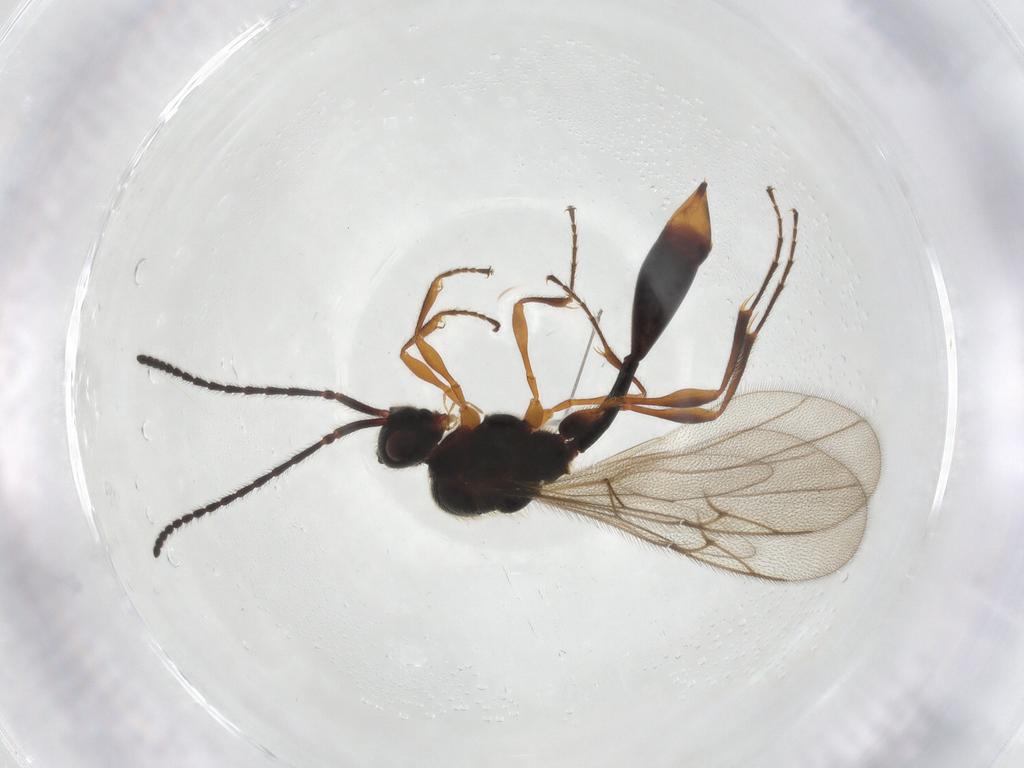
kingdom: Animalia
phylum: Arthropoda
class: Insecta
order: Hymenoptera
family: Diapriidae
